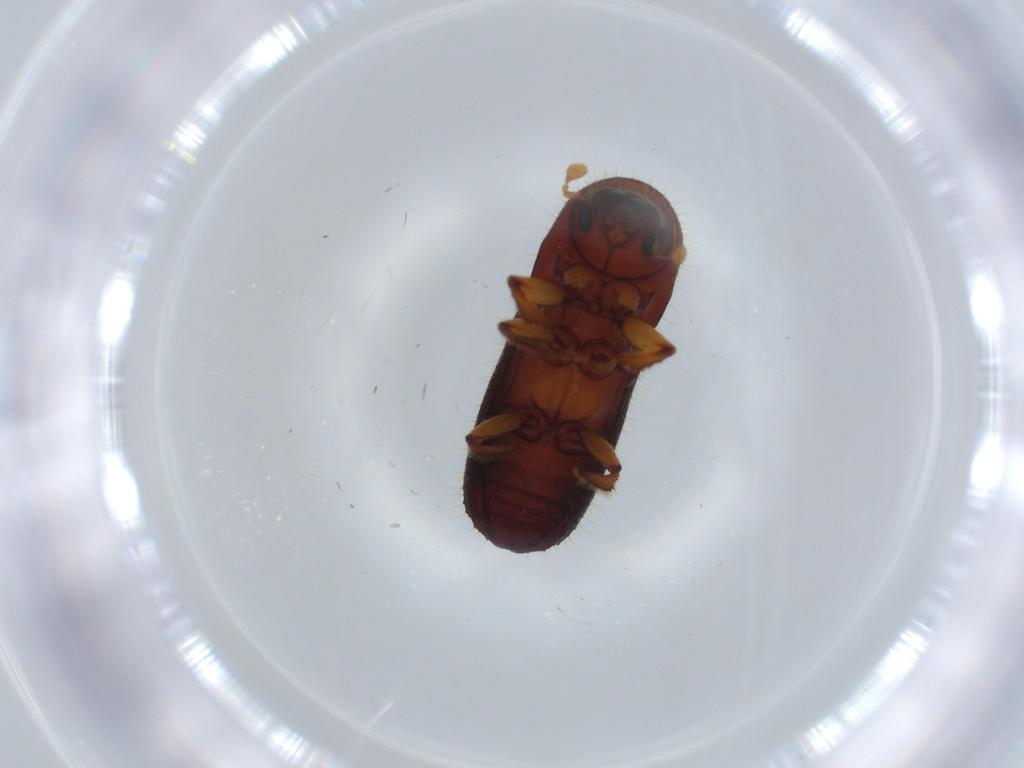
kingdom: Animalia
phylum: Arthropoda
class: Insecta
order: Coleoptera
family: Curculionidae
